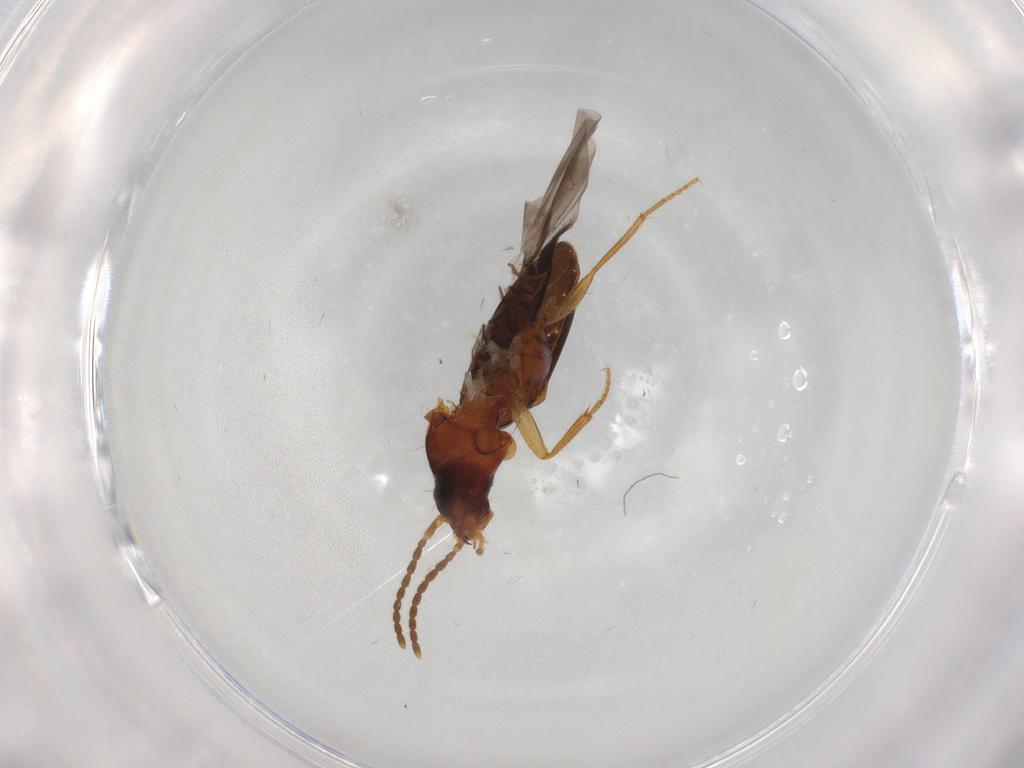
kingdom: Animalia
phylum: Arthropoda
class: Insecta
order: Coleoptera
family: Carabidae
